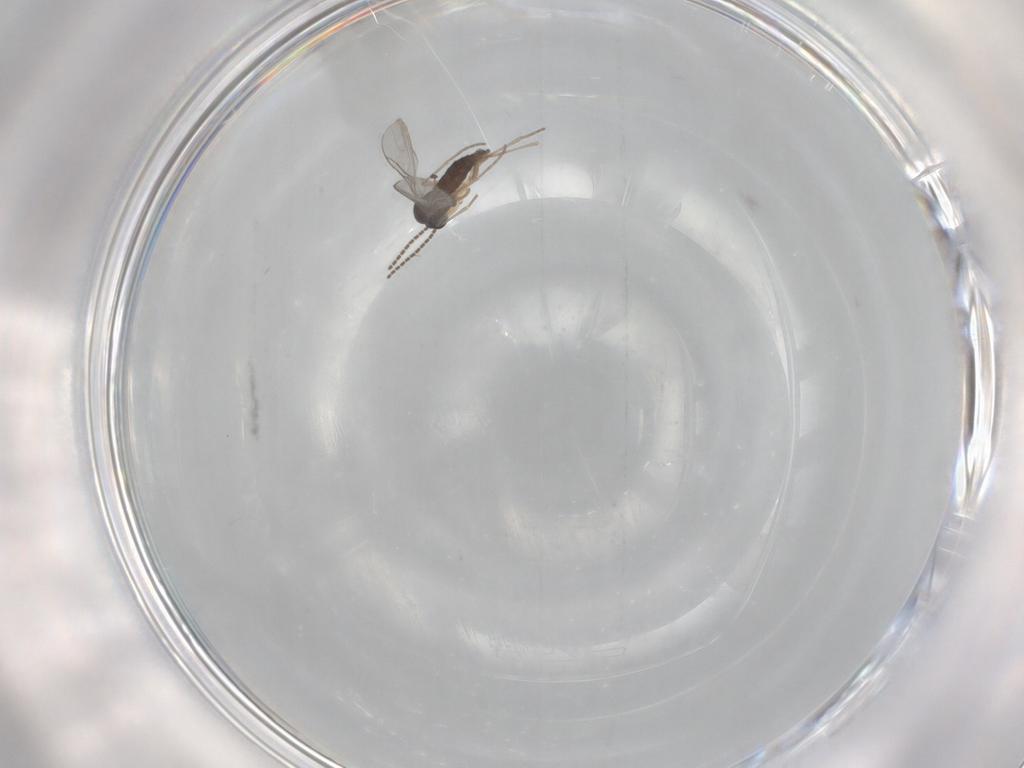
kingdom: Animalia
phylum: Arthropoda
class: Insecta
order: Diptera
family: Sciaridae
